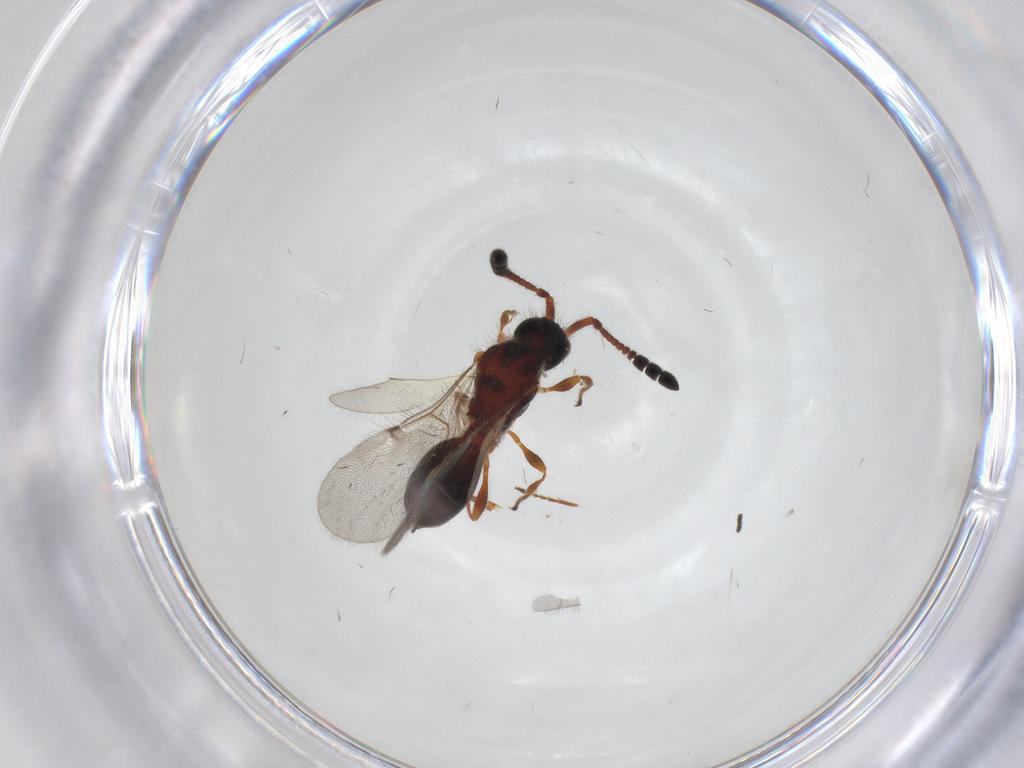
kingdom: Animalia
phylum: Arthropoda
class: Insecta
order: Hymenoptera
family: Diapriidae
